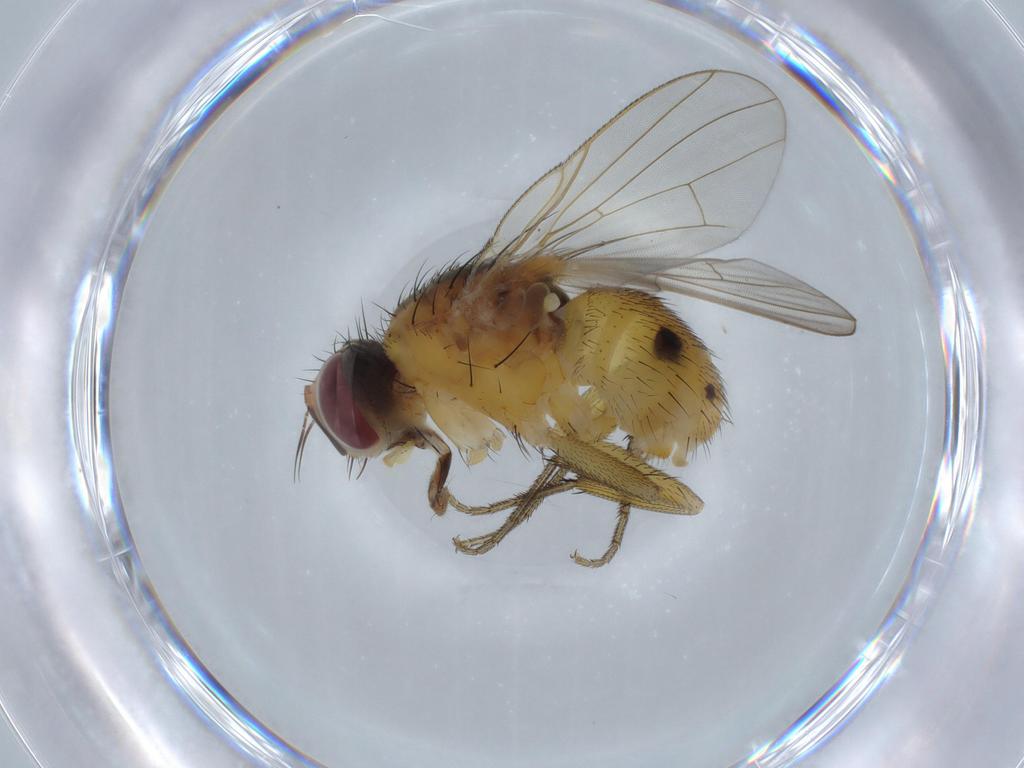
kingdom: Animalia
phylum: Arthropoda
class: Insecta
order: Diptera
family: Muscidae
